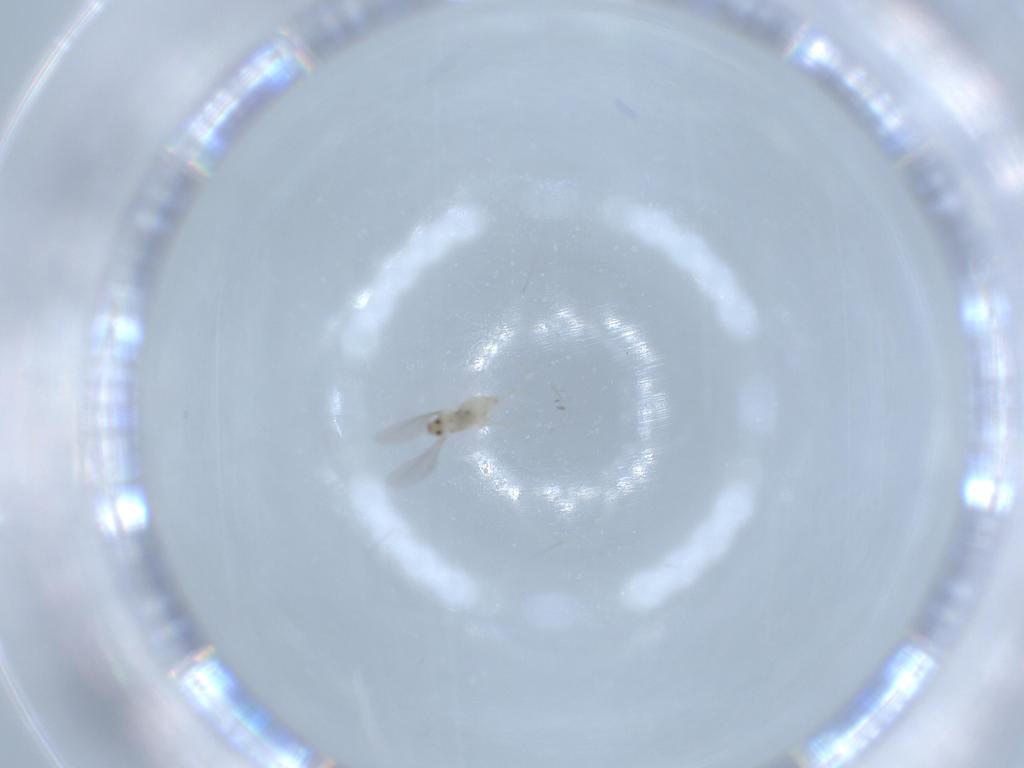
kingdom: Animalia
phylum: Arthropoda
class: Insecta
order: Diptera
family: Cecidomyiidae
